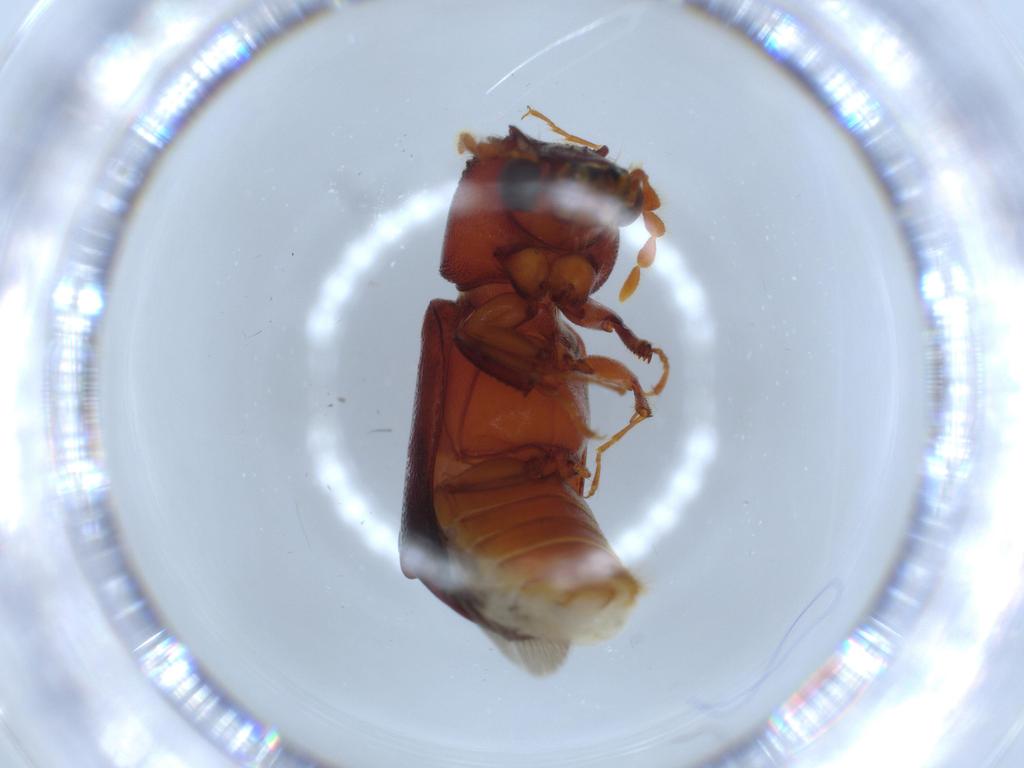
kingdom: Animalia
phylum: Arthropoda
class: Insecta
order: Coleoptera
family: Bostrichidae
